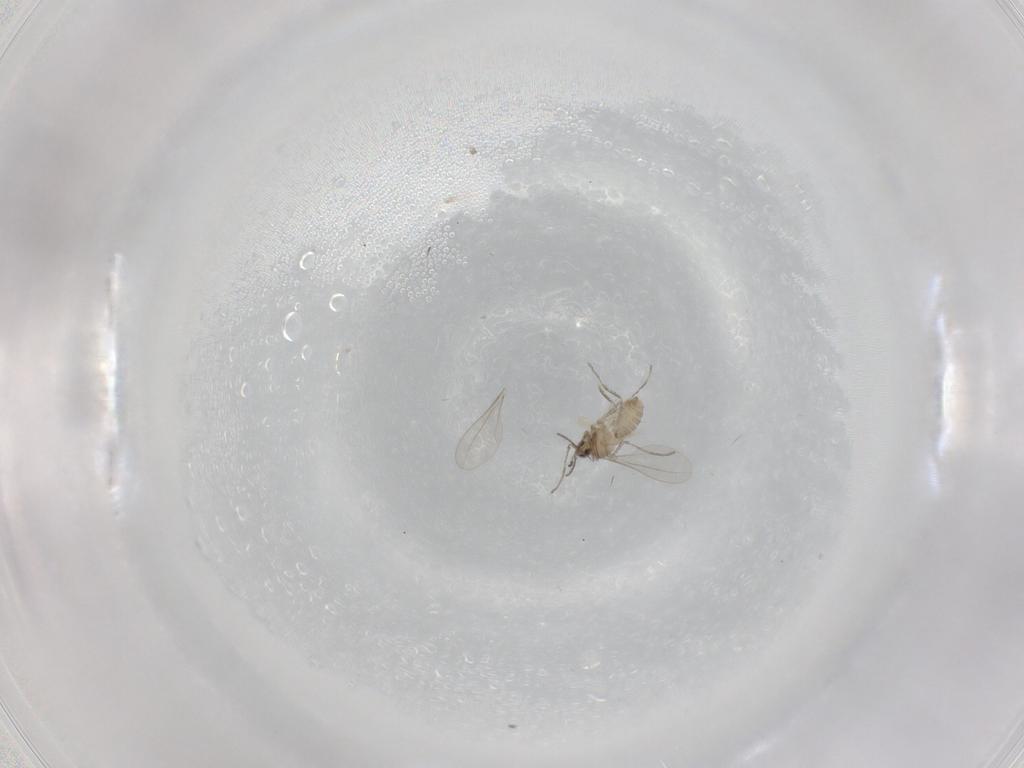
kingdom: Animalia
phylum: Arthropoda
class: Insecta
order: Diptera
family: Cecidomyiidae
